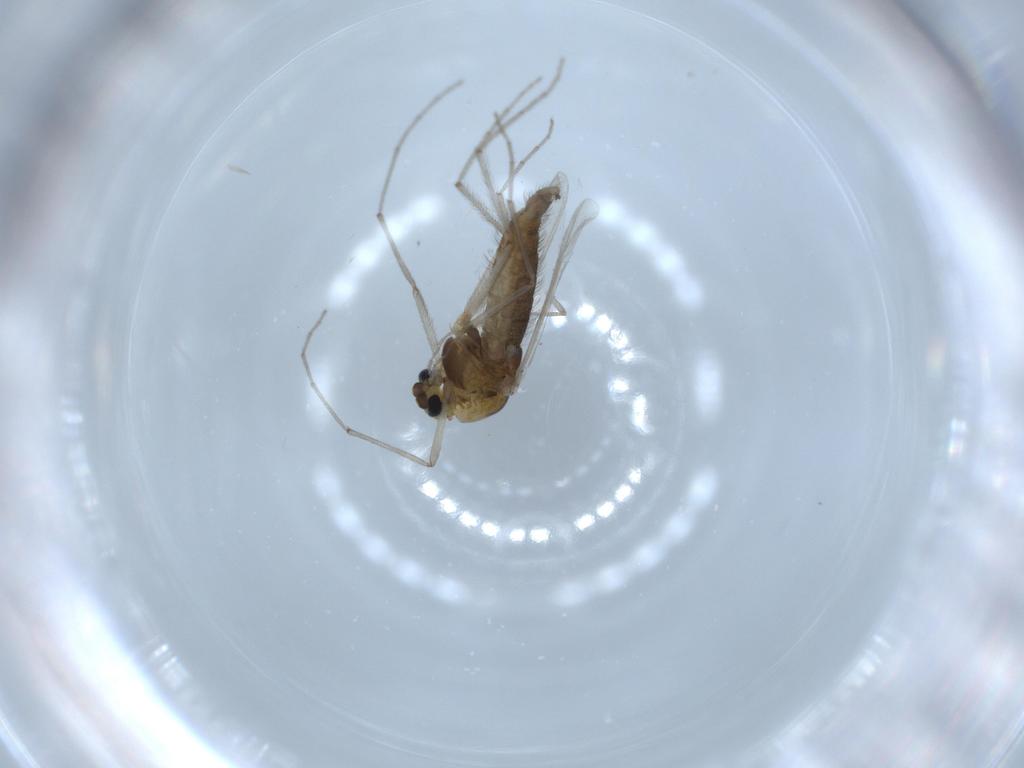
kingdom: Animalia
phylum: Arthropoda
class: Insecta
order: Diptera
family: Chironomidae
